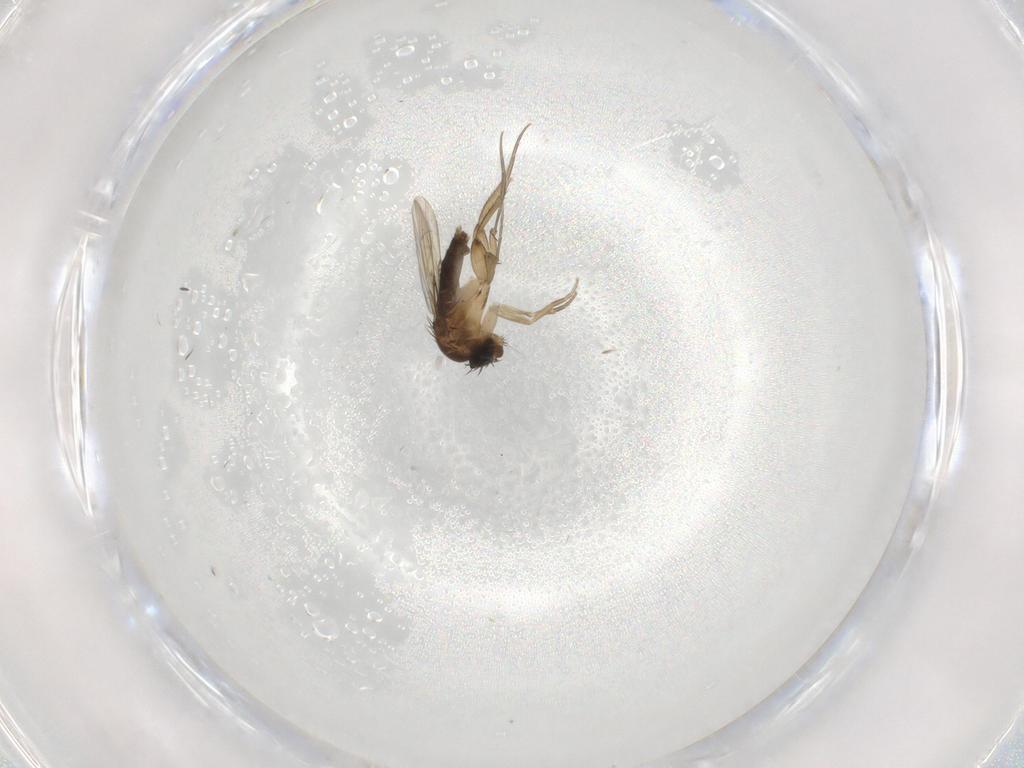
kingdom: Animalia
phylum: Arthropoda
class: Insecta
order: Diptera
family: Phoridae
